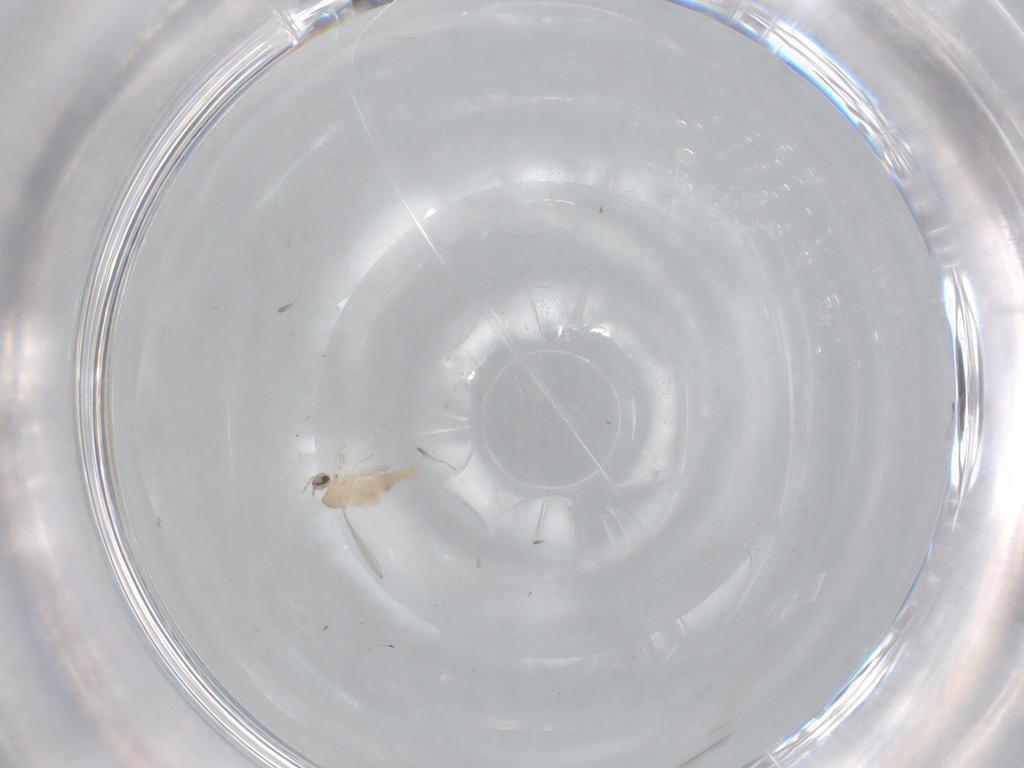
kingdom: Animalia
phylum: Arthropoda
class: Insecta
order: Diptera
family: Cecidomyiidae
